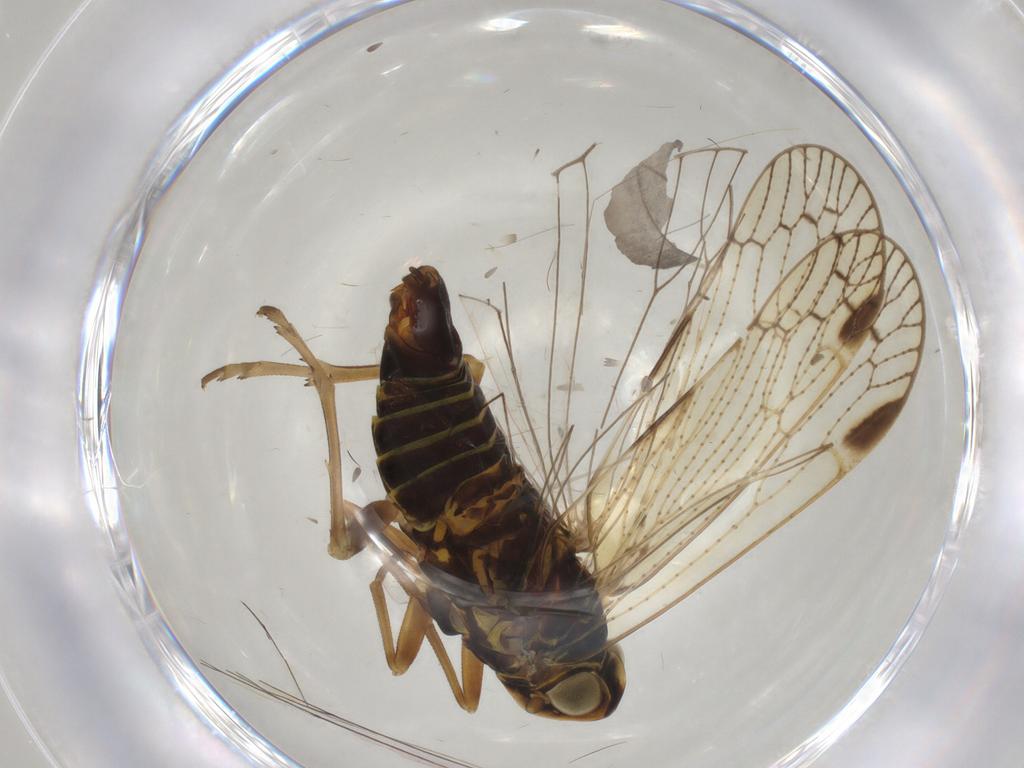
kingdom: Animalia
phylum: Arthropoda
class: Insecta
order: Hemiptera
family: Cixiidae
